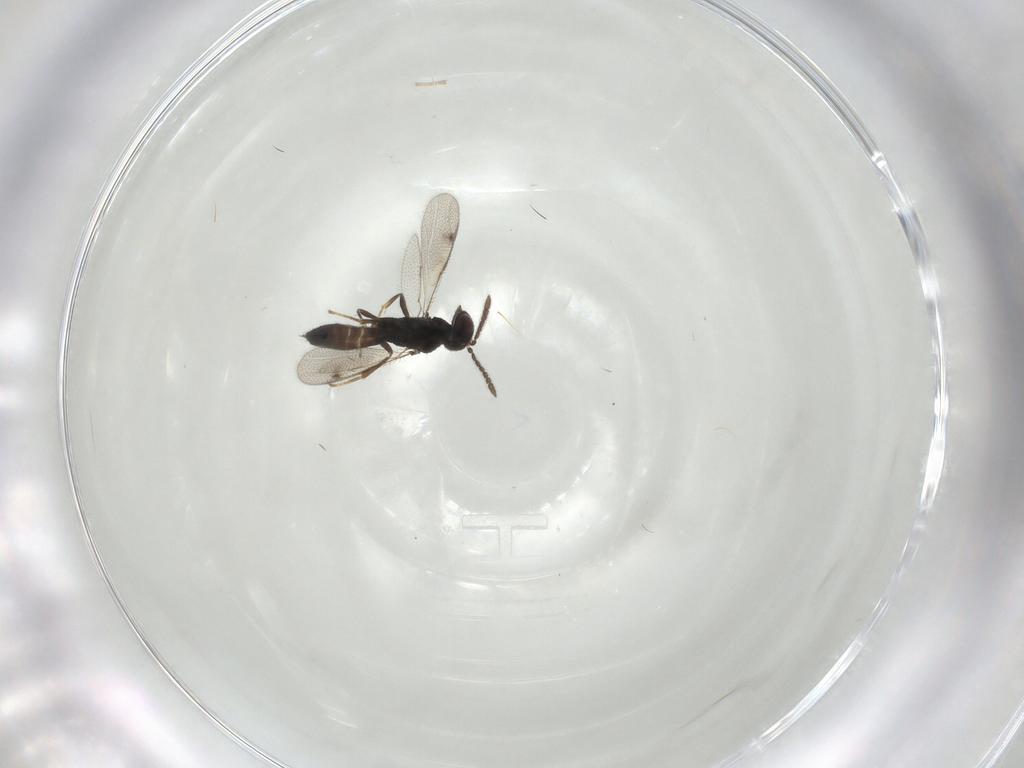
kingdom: Animalia
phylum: Arthropoda
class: Insecta
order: Hymenoptera
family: Pteromalidae
